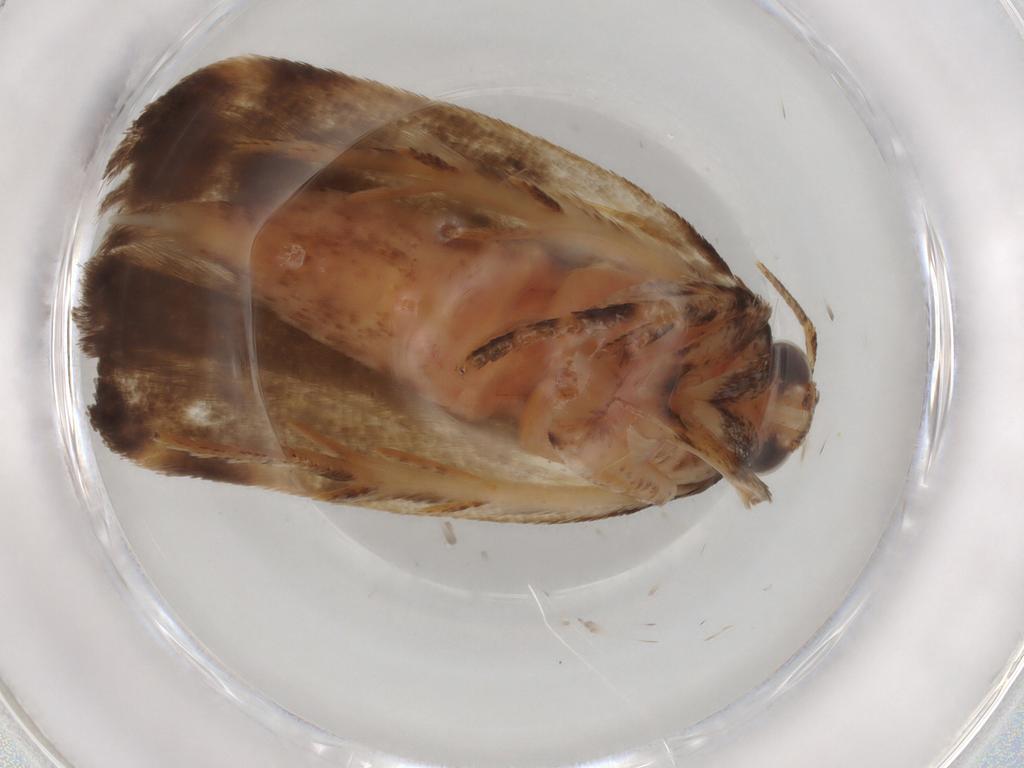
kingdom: Animalia
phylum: Arthropoda
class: Insecta
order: Lepidoptera
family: Gelechiidae
